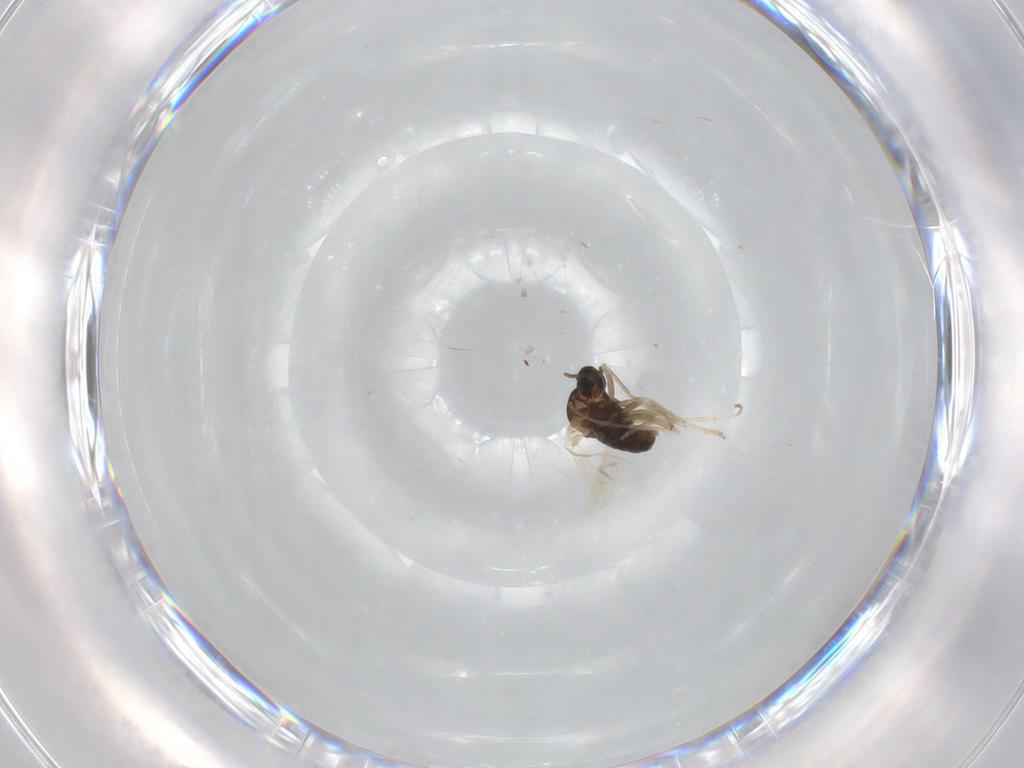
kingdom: Animalia
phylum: Arthropoda
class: Insecta
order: Diptera
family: Cecidomyiidae
